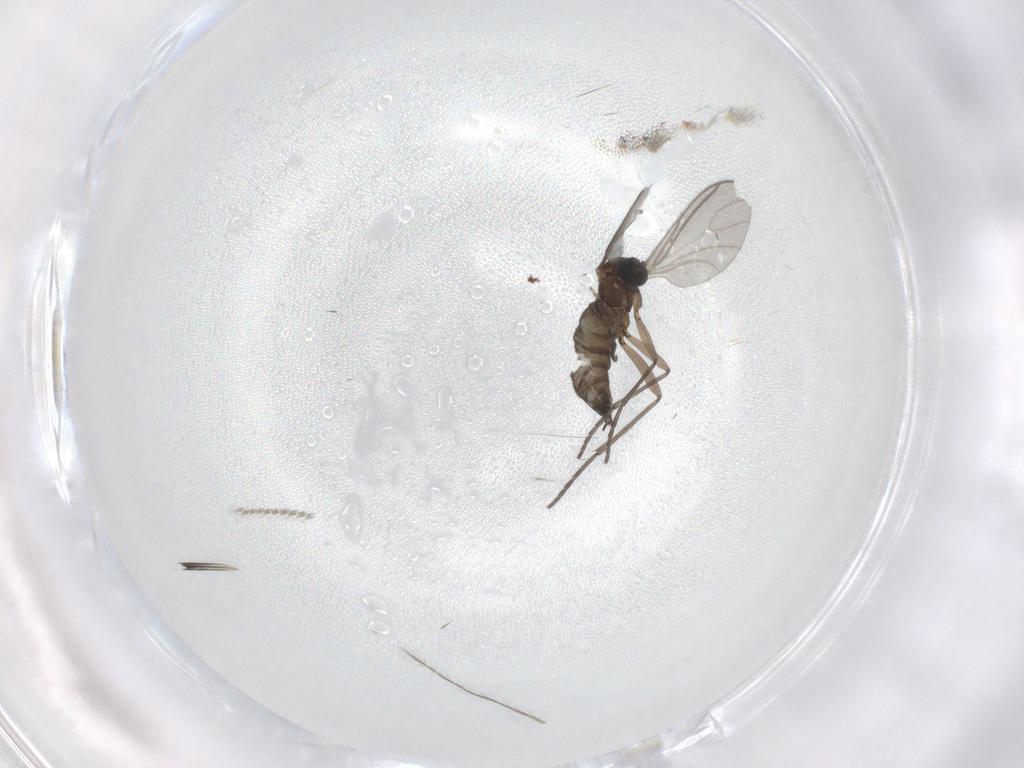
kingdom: Animalia
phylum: Arthropoda
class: Insecta
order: Diptera
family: Sciaridae
